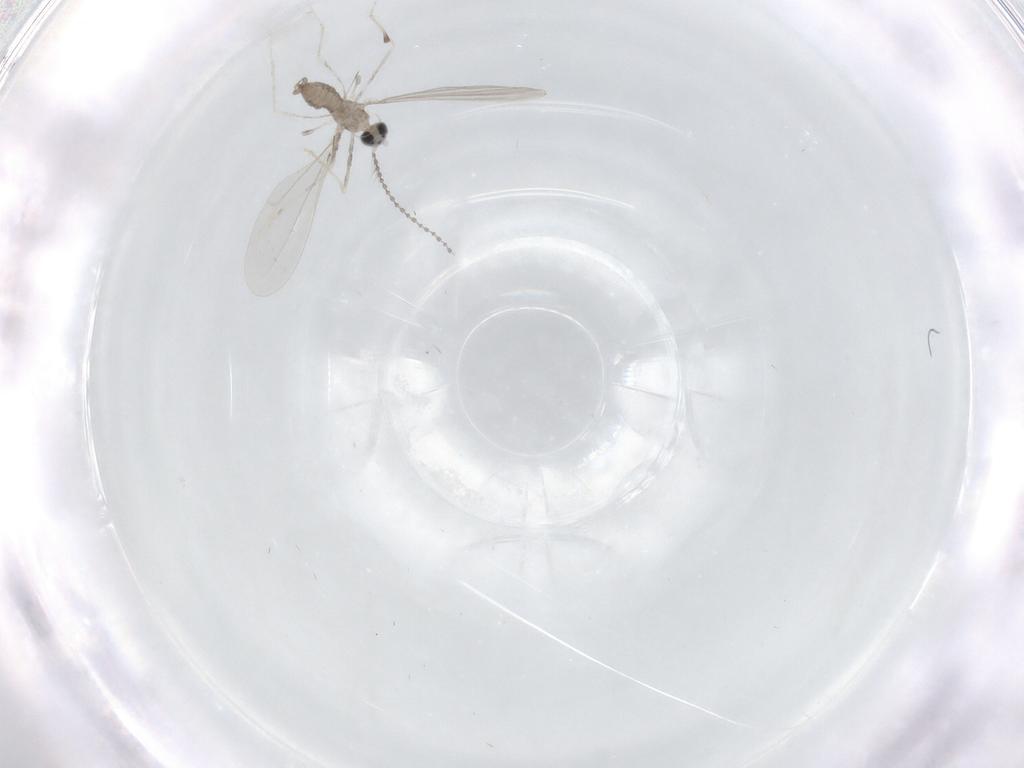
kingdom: Animalia
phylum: Arthropoda
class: Insecta
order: Diptera
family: Cecidomyiidae
